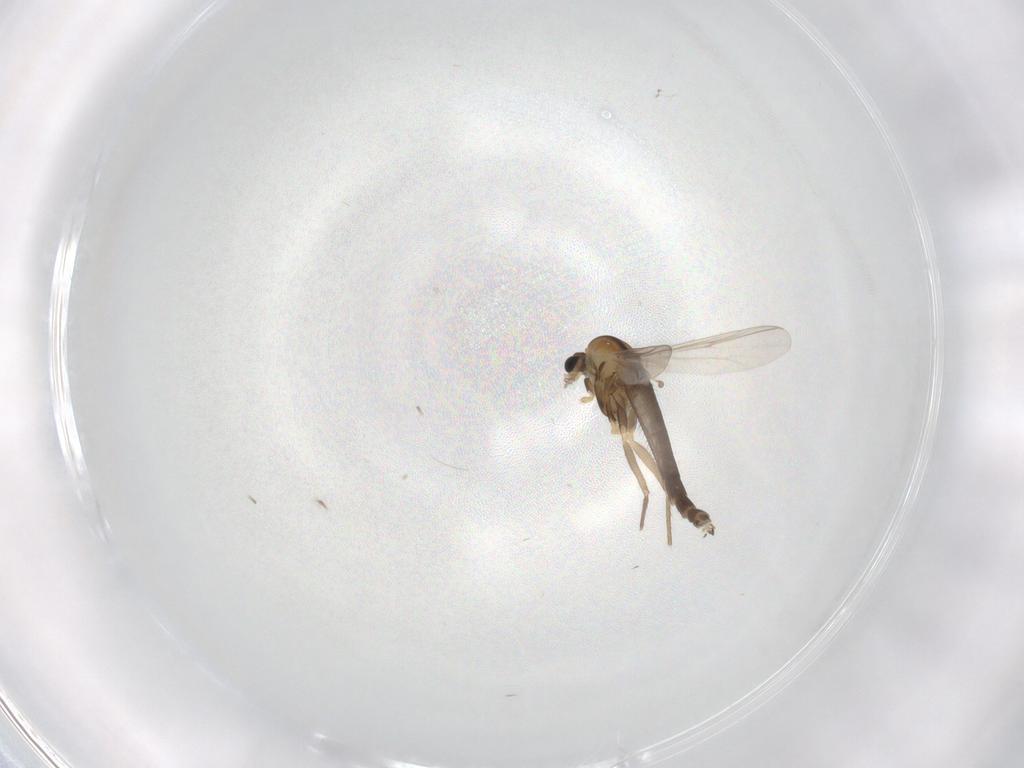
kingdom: Animalia
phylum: Arthropoda
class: Insecta
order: Diptera
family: Chironomidae
